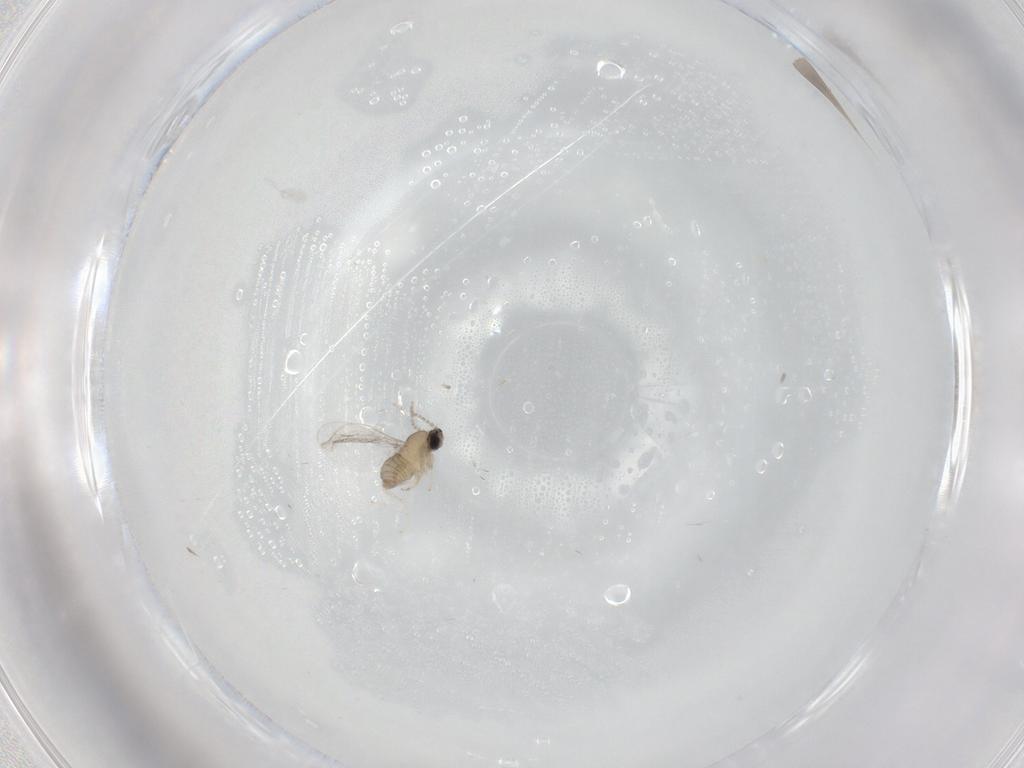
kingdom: Animalia
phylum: Arthropoda
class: Insecta
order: Diptera
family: Cecidomyiidae
